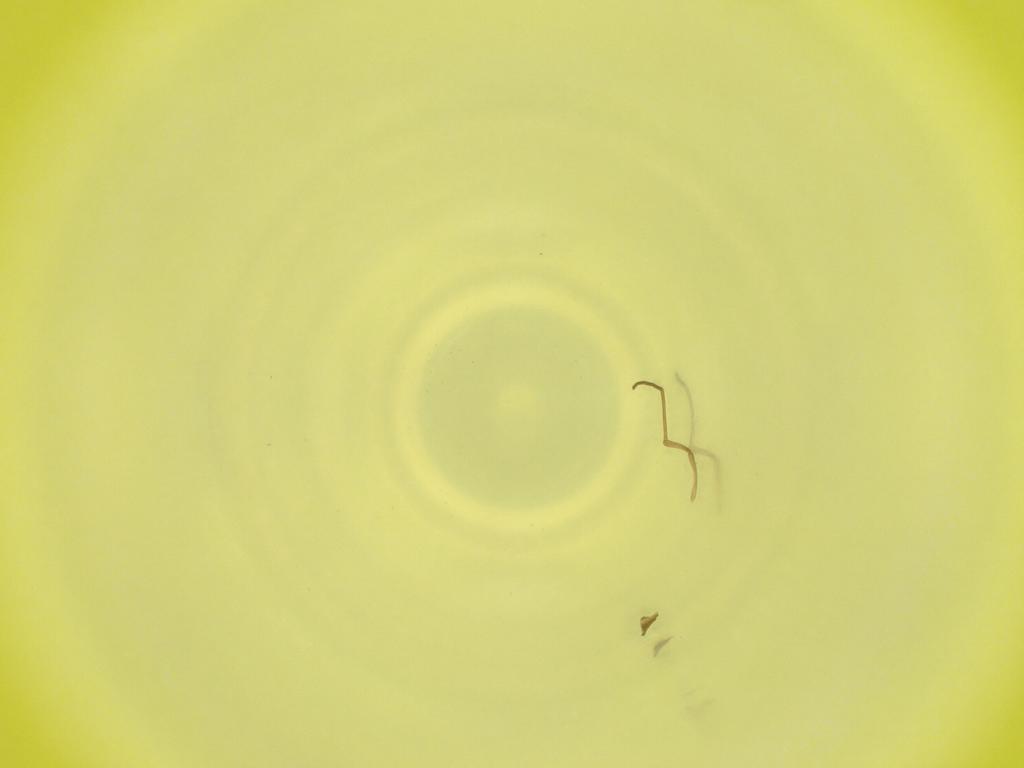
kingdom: Animalia
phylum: Arthropoda
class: Insecta
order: Diptera
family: Cecidomyiidae
